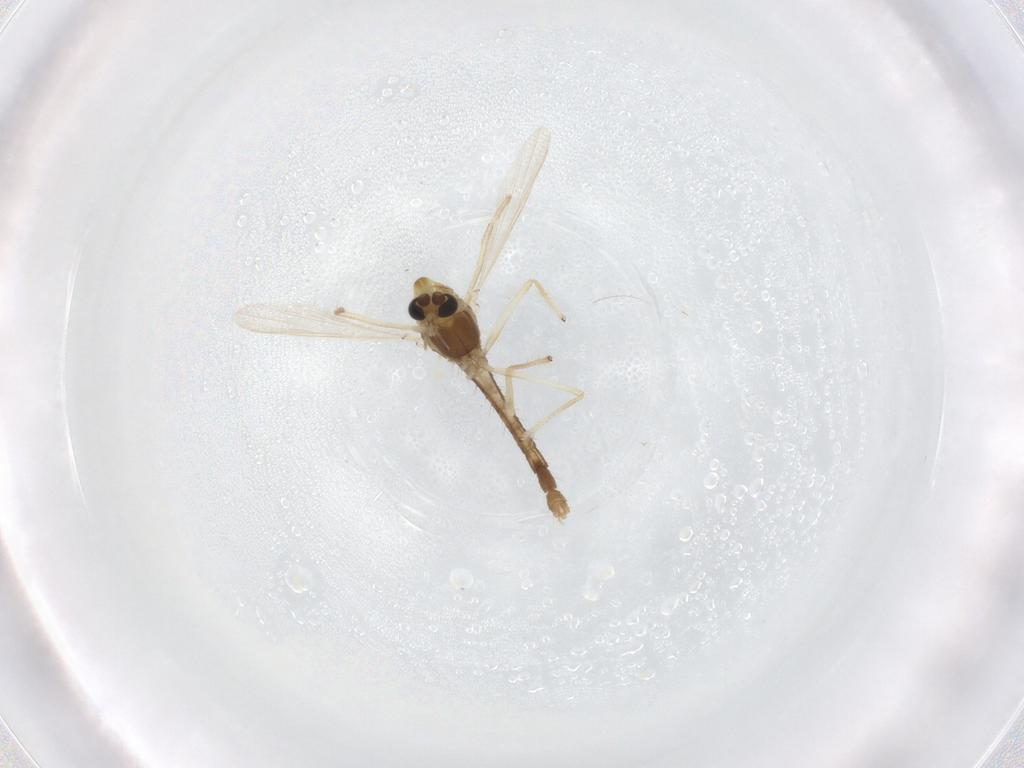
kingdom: Animalia
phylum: Arthropoda
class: Insecta
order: Diptera
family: Chironomidae
